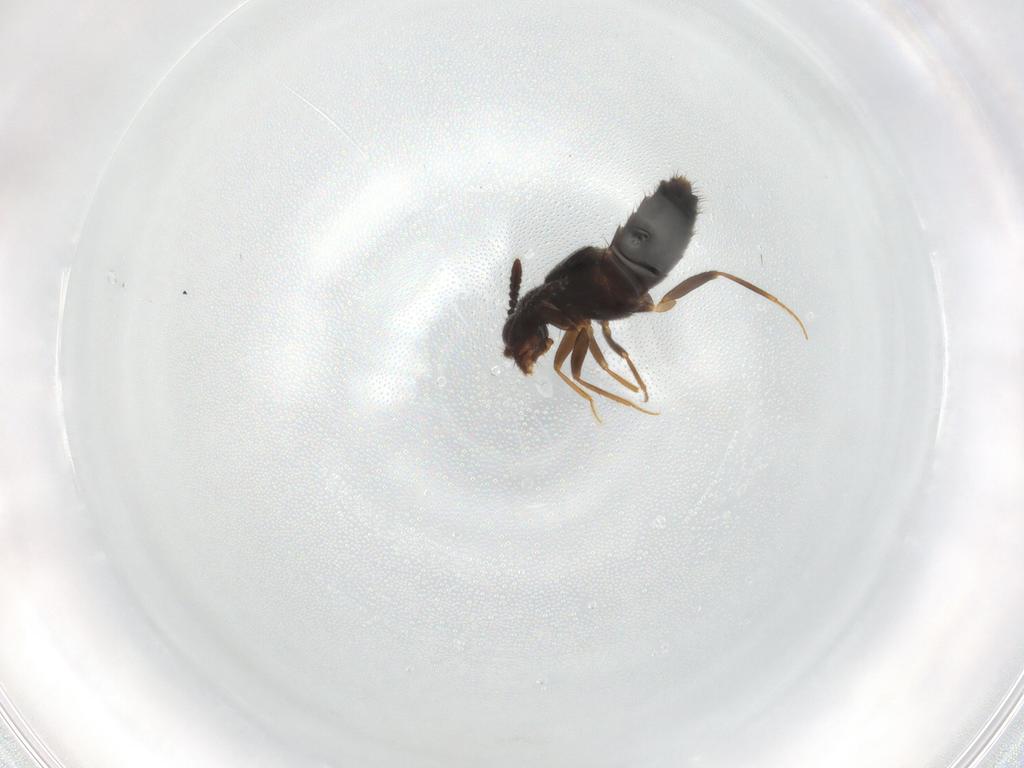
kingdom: Animalia
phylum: Arthropoda
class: Insecta
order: Coleoptera
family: Staphylinidae
